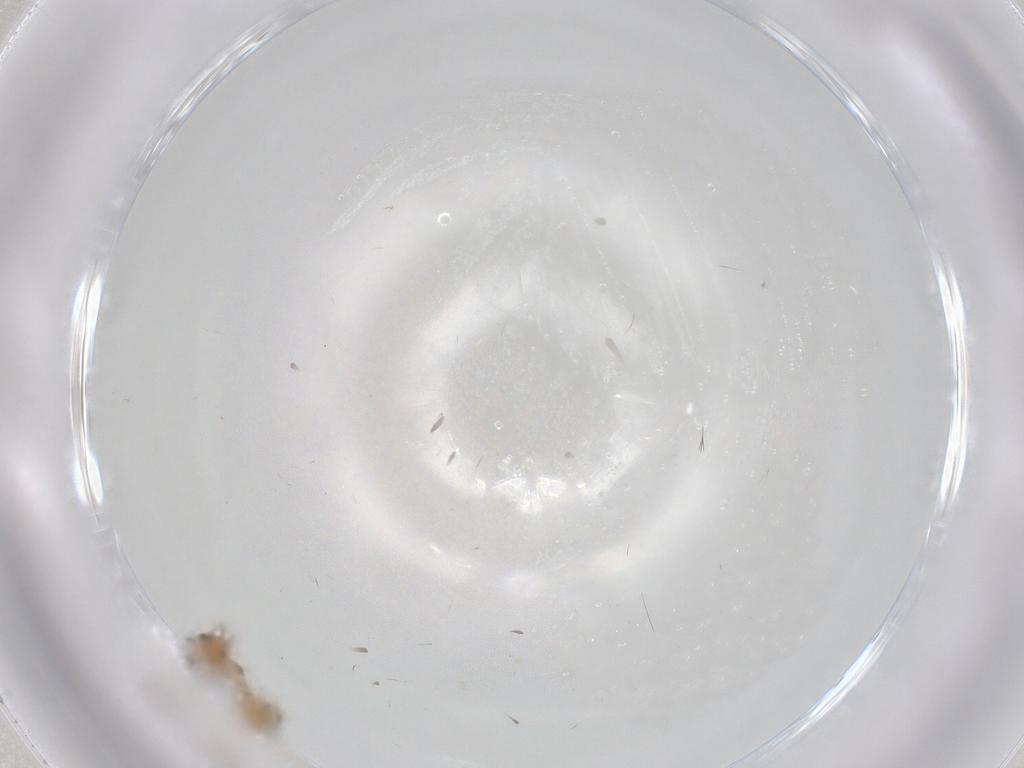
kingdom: Animalia
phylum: Arthropoda
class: Insecta
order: Hymenoptera
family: Platygastridae
